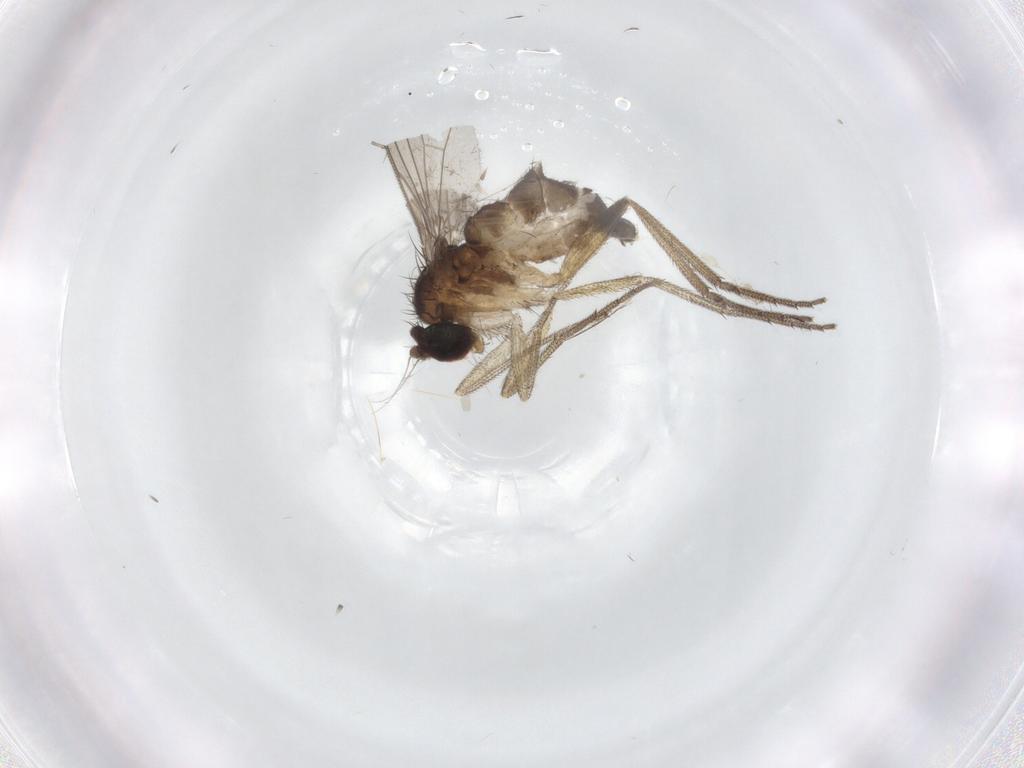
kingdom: Animalia
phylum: Arthropoda
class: Insecta
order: Diptera
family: Dolichopodidae
